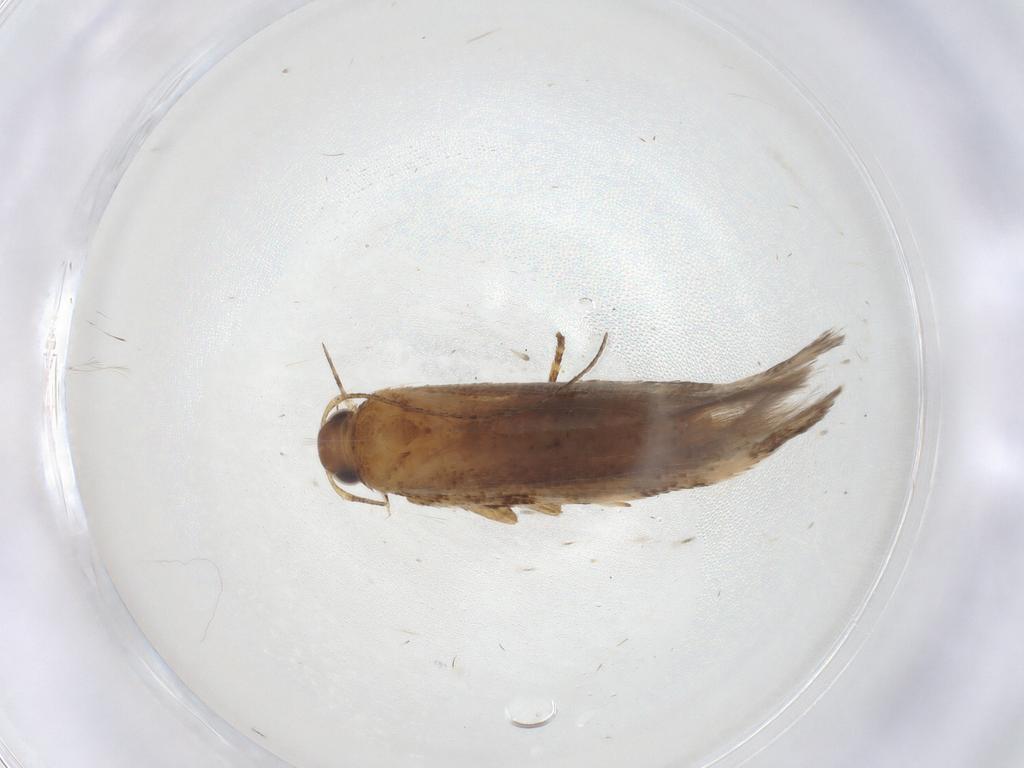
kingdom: Animalia
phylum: Arthropoda
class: Insecta
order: Lepidoptera
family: Gelechiidae
